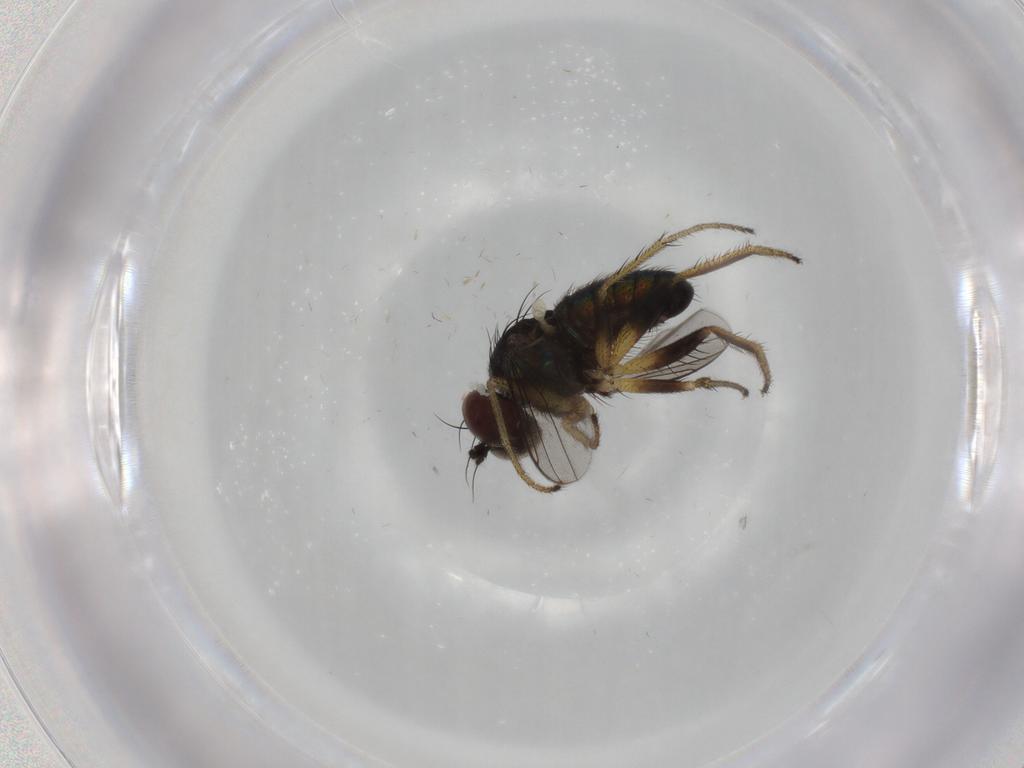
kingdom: Animalia
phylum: Arthropoda
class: Insecta
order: Diptera
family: Dolichopodidae
